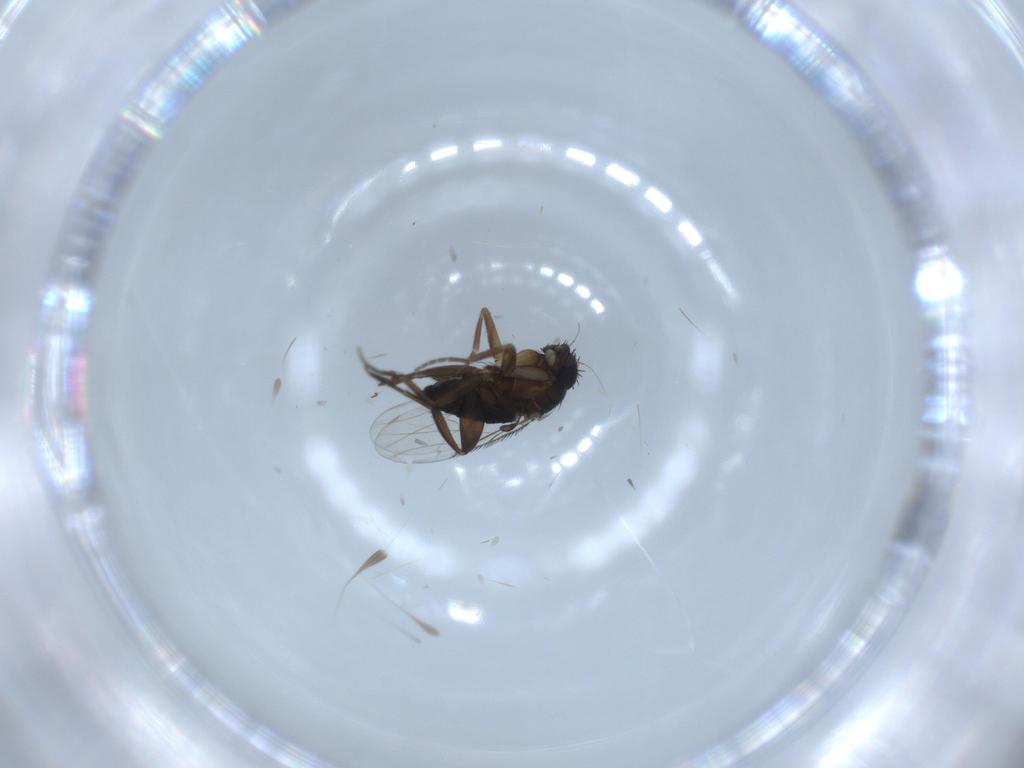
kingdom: Animalia
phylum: Arthropoda
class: Insecta
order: Diptera
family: Phoridae
